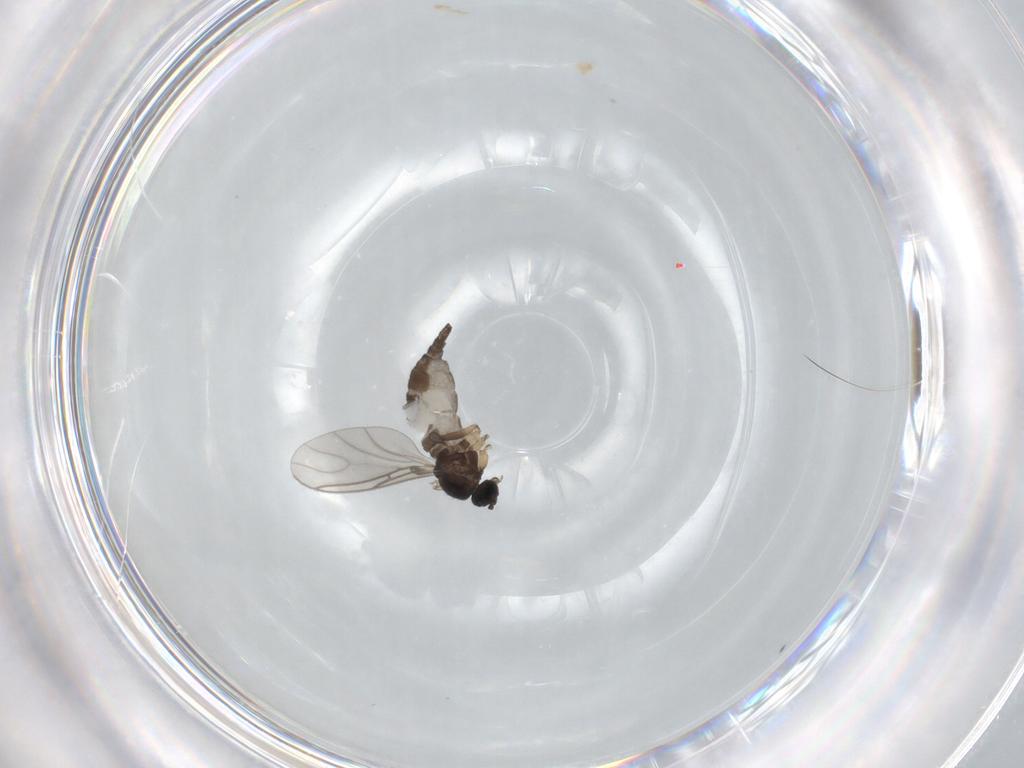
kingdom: Animalia
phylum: Arthropoda
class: Insecta
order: Diptera
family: Sciaridae
